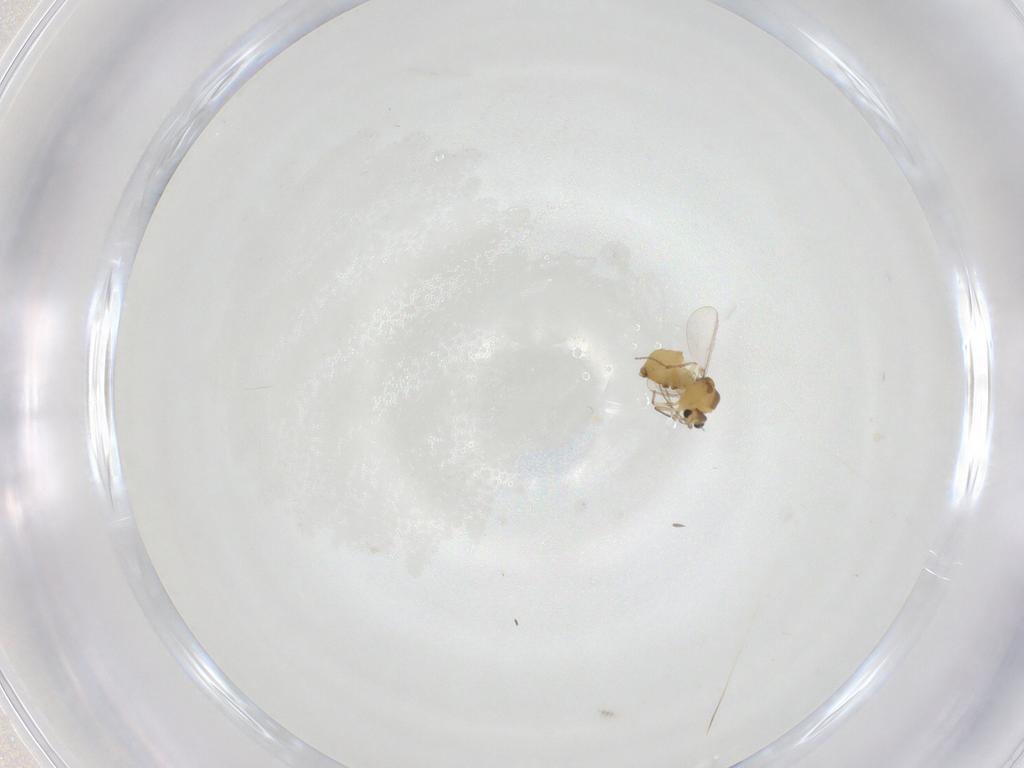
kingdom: Animalia
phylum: Arthropoda
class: Insecta
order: Diptera
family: Chironomidae
